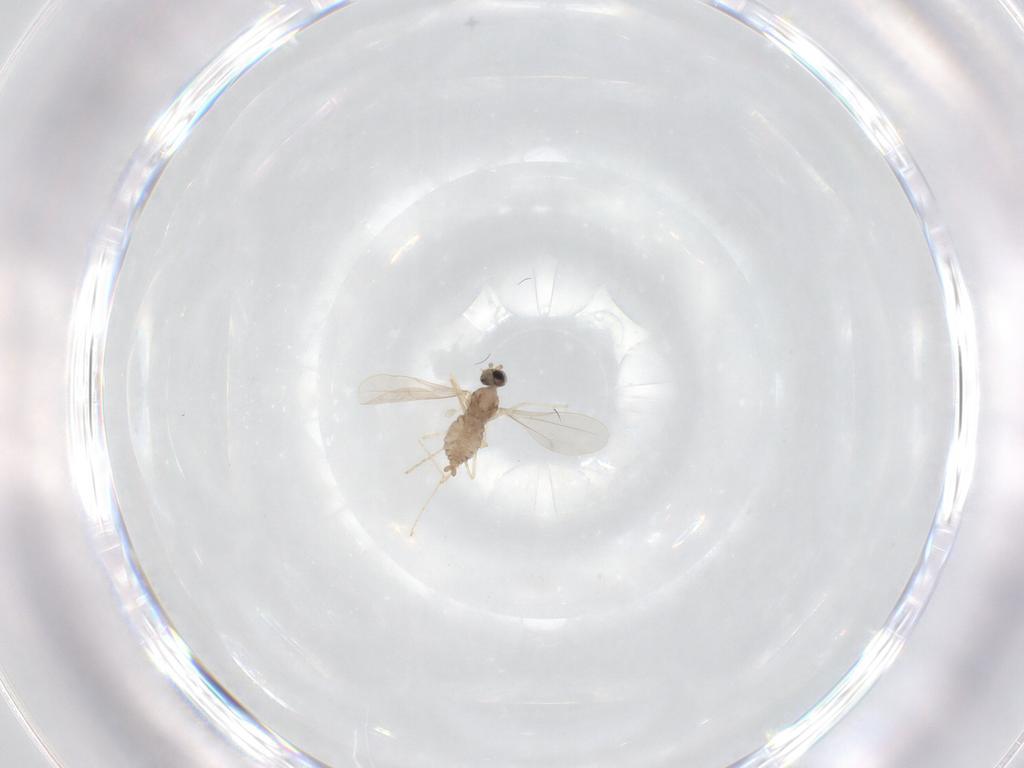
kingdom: Animalia
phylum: Arthropoda
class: Insecta
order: Diptera
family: Cecidomyiidae
